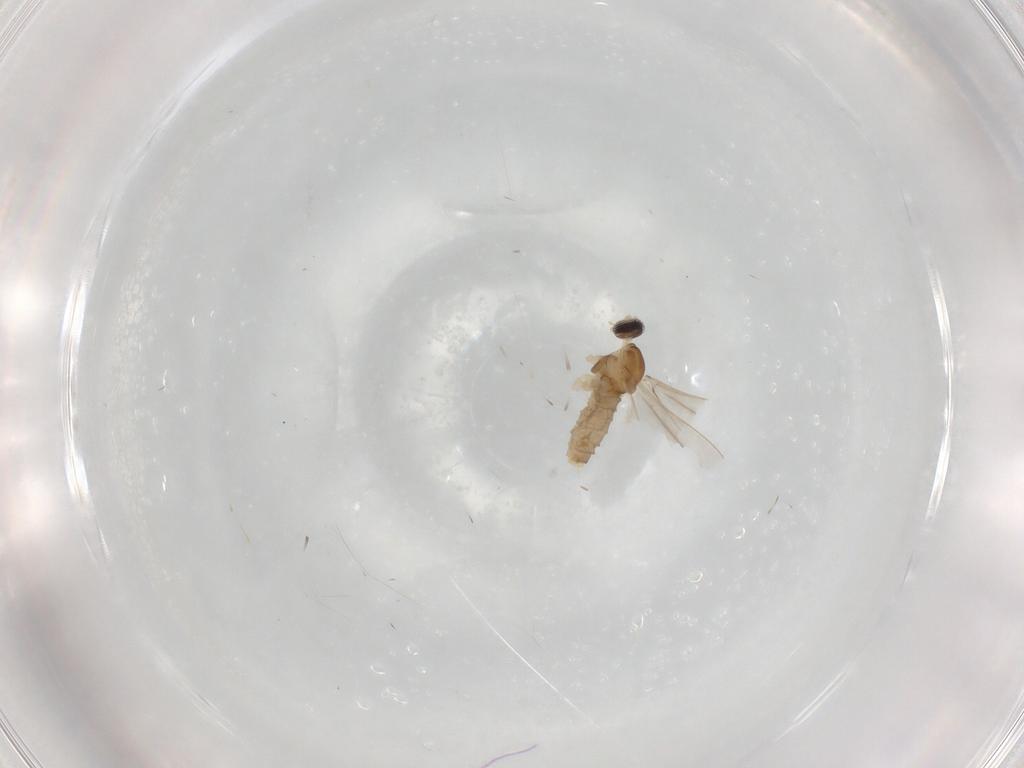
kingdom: Animalia
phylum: Arthropoda
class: Insecta
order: Diptera
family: Cecidomyiidae
